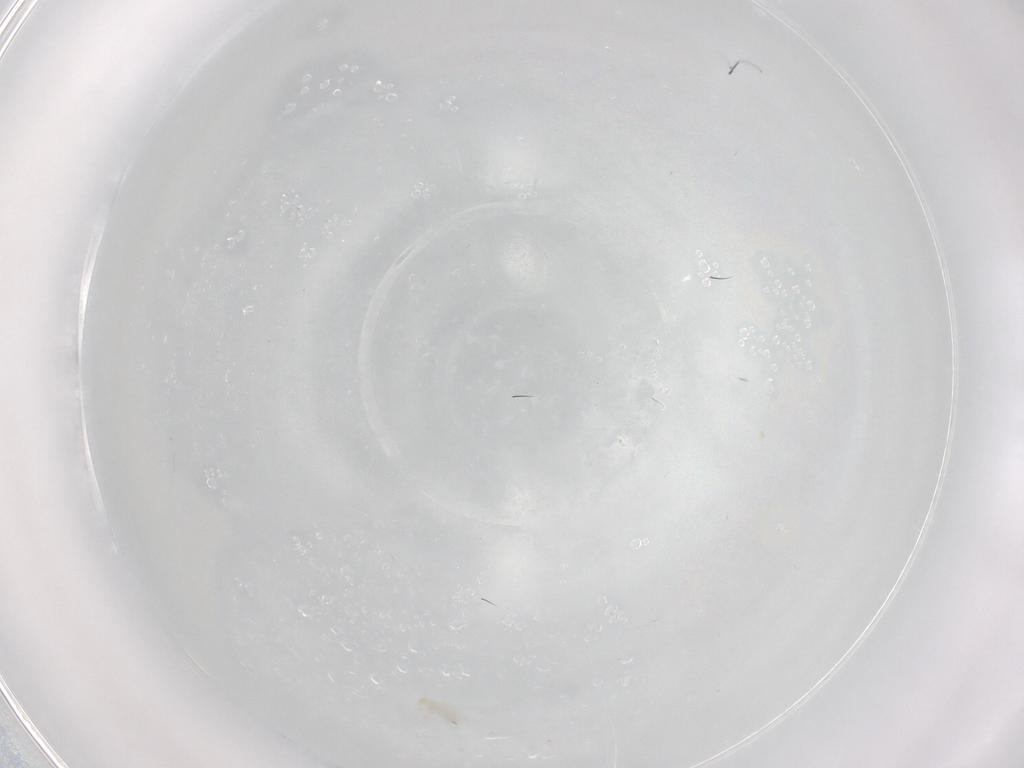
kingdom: Animalia
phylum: Arthropoda
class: Arachnida
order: Trombidiformes
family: Erythraeidae
